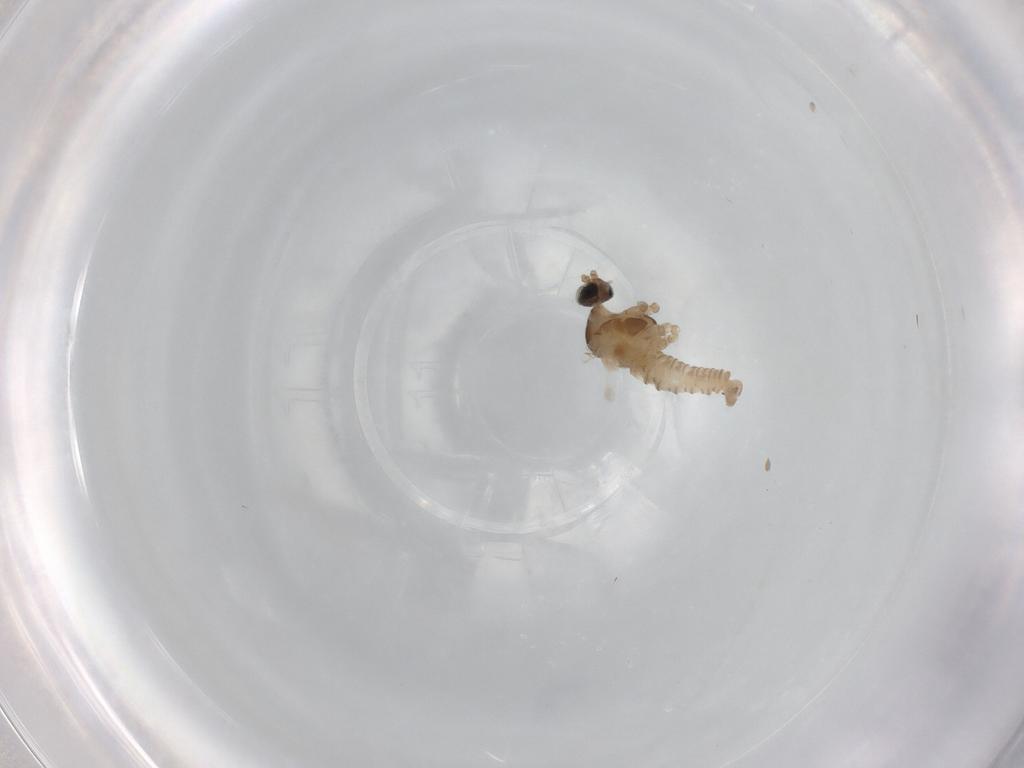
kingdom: Animalia
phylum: Arthropoda
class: Insecta
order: Diptera
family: Cecidomyiidae
